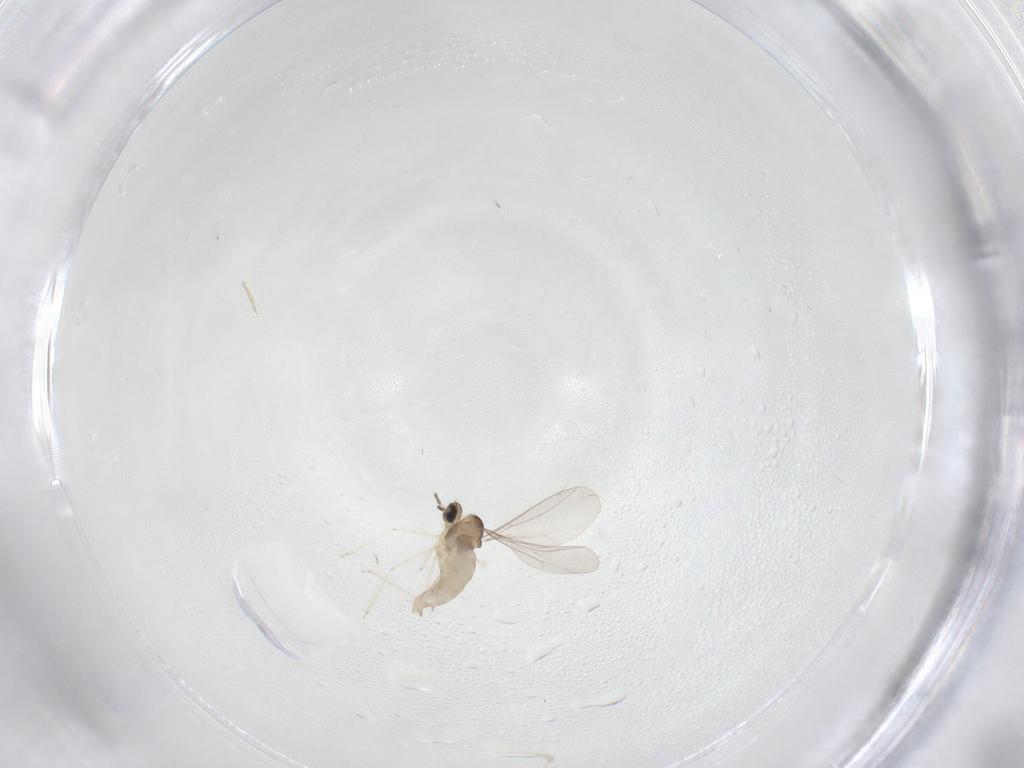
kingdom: Animalia
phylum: Arthropoda
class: Insecta
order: Diptera
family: Cecidomyiidae
